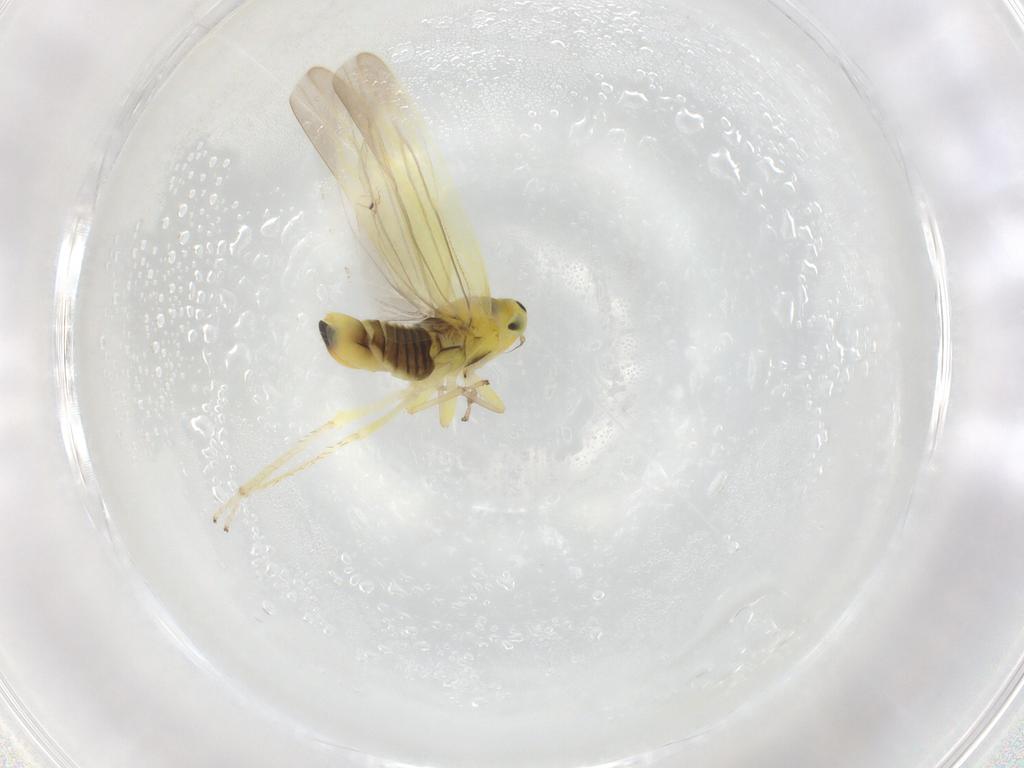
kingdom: Animalia
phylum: Arthropoda
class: Insecta
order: Hemiptera
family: Cicadellidae
